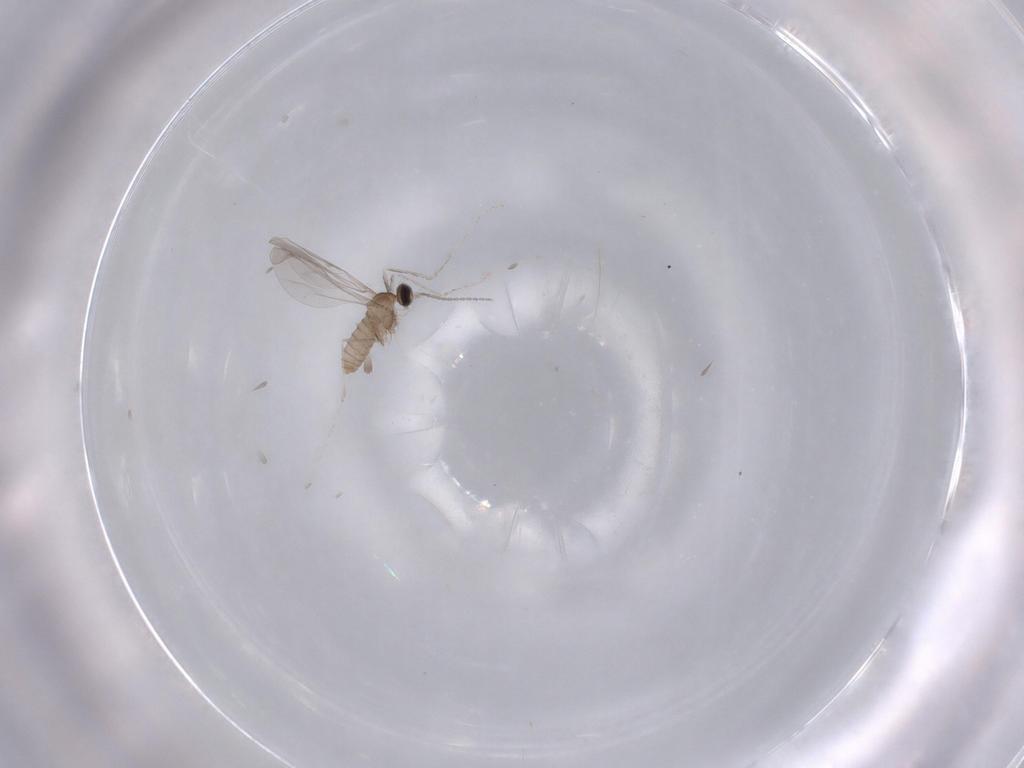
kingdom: Animalia
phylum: Arthropoda
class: Insecta
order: Diptera
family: Cecidomyiidae
